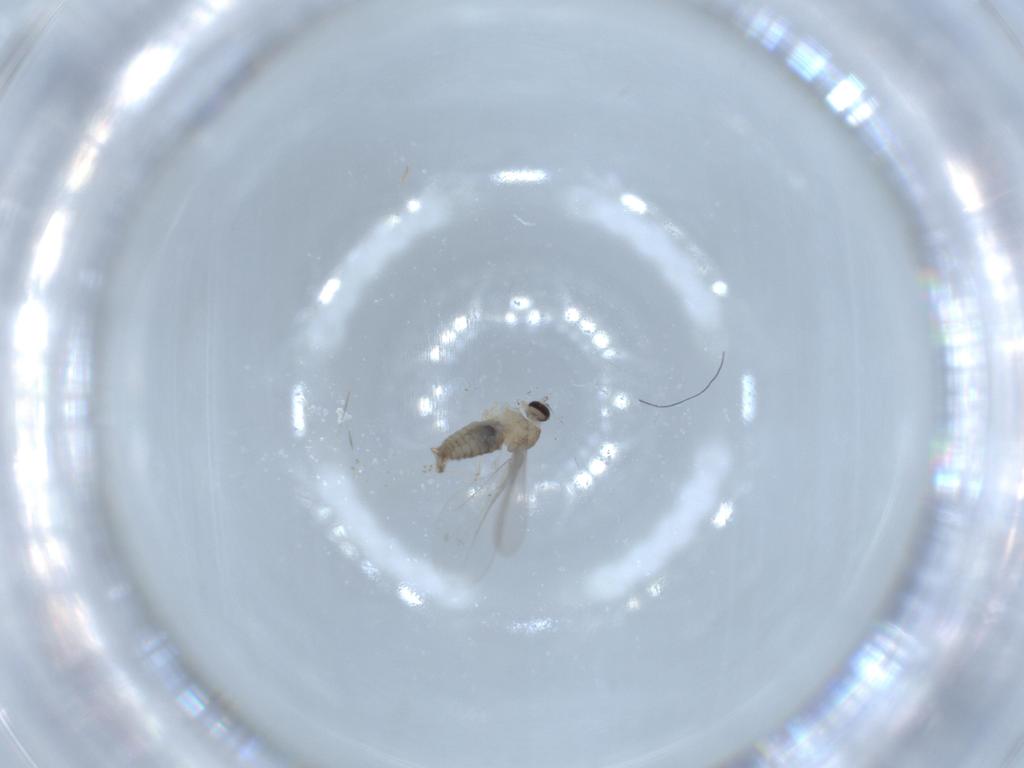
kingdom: Animalia
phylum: Arthropoda
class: Insecta
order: Diptera
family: Cecidomyiidae
